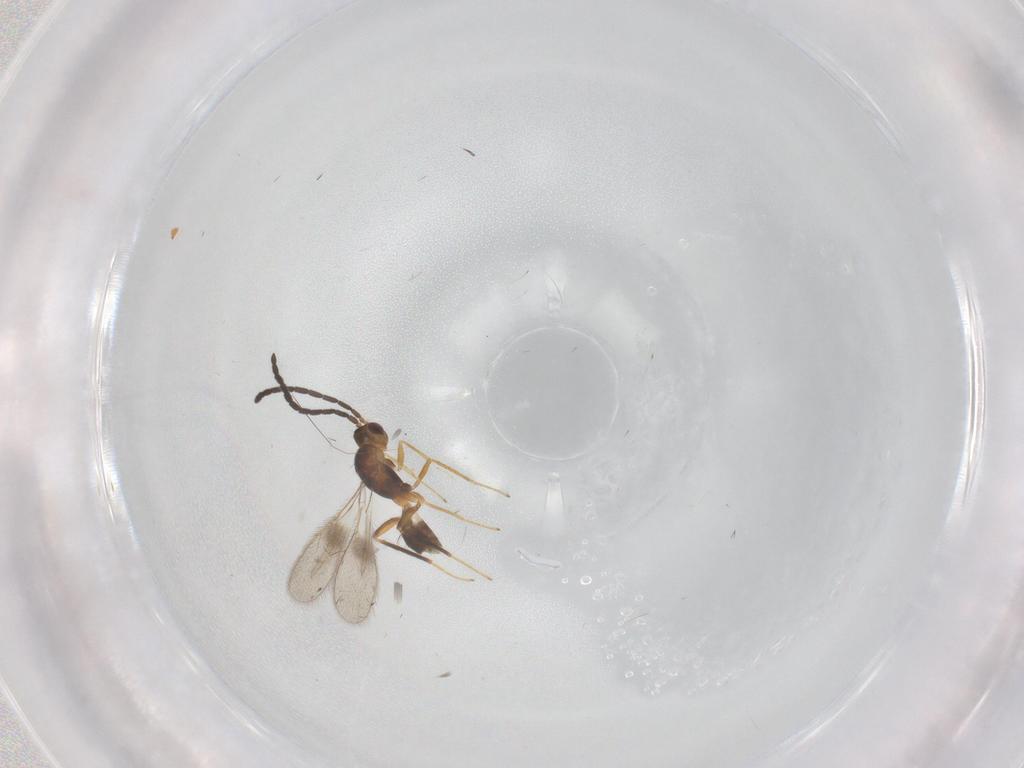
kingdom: Animalia
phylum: Arthropoda
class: Insecta
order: Hymenoptera
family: Mymaridae
